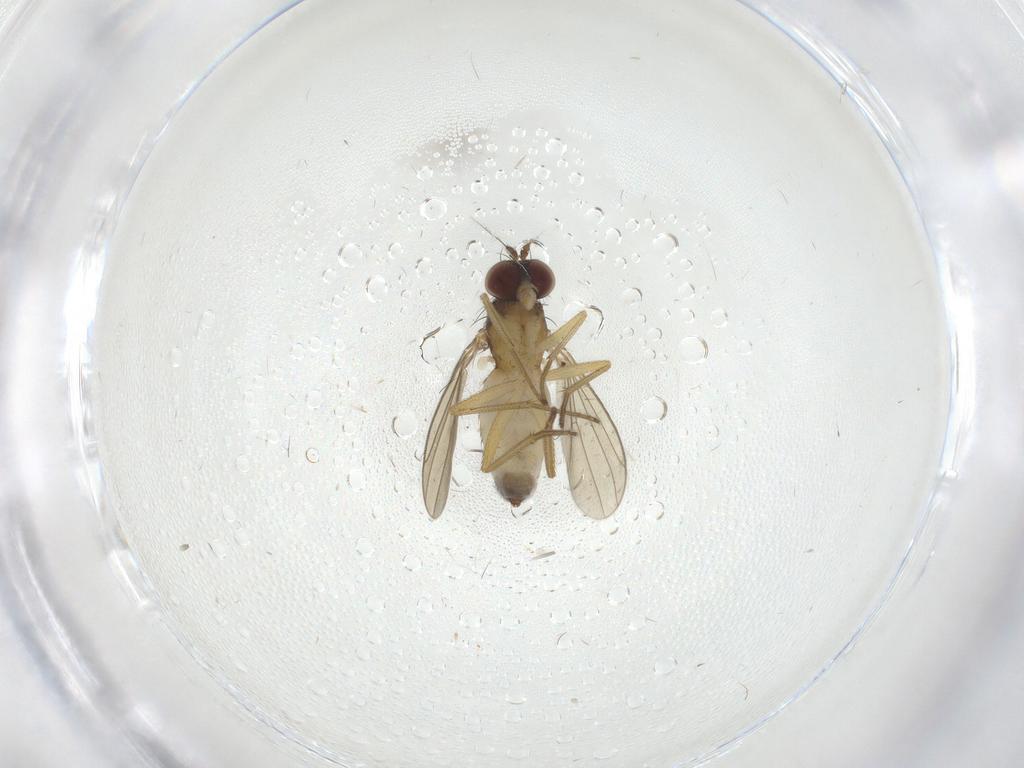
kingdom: Animalia
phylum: Arthropoda
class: Insecta
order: Diptera
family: Dolichopodidae
